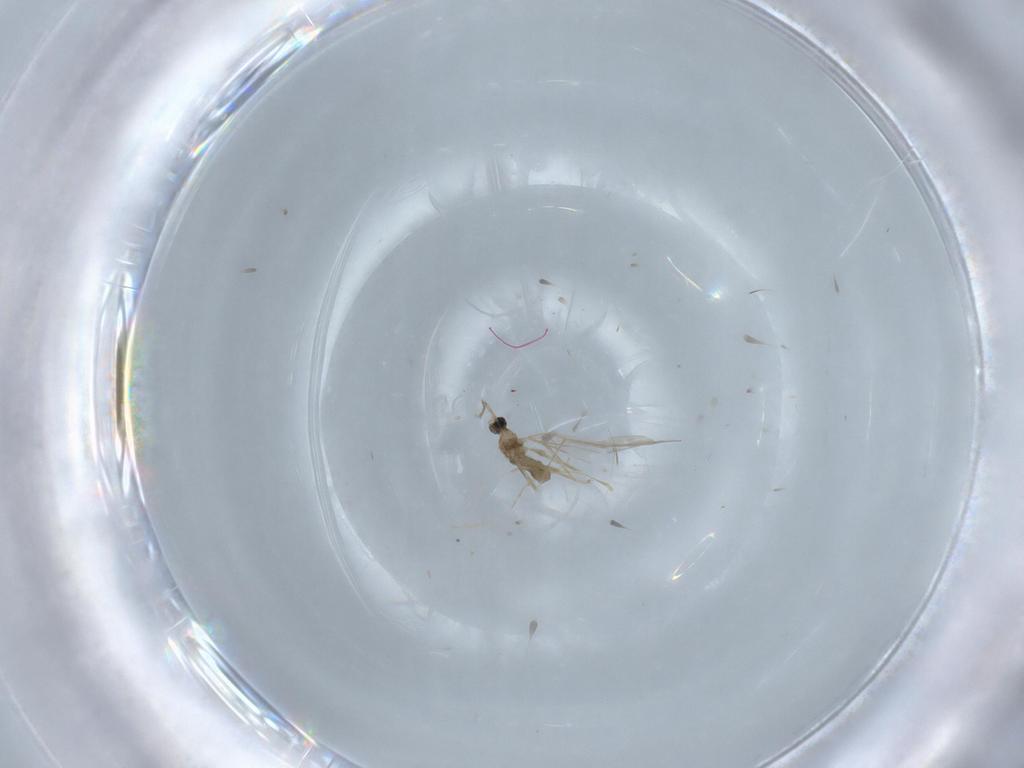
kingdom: Animalia
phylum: Arthropoda
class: Insecta
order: Diptera
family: Cecidomyiidae
